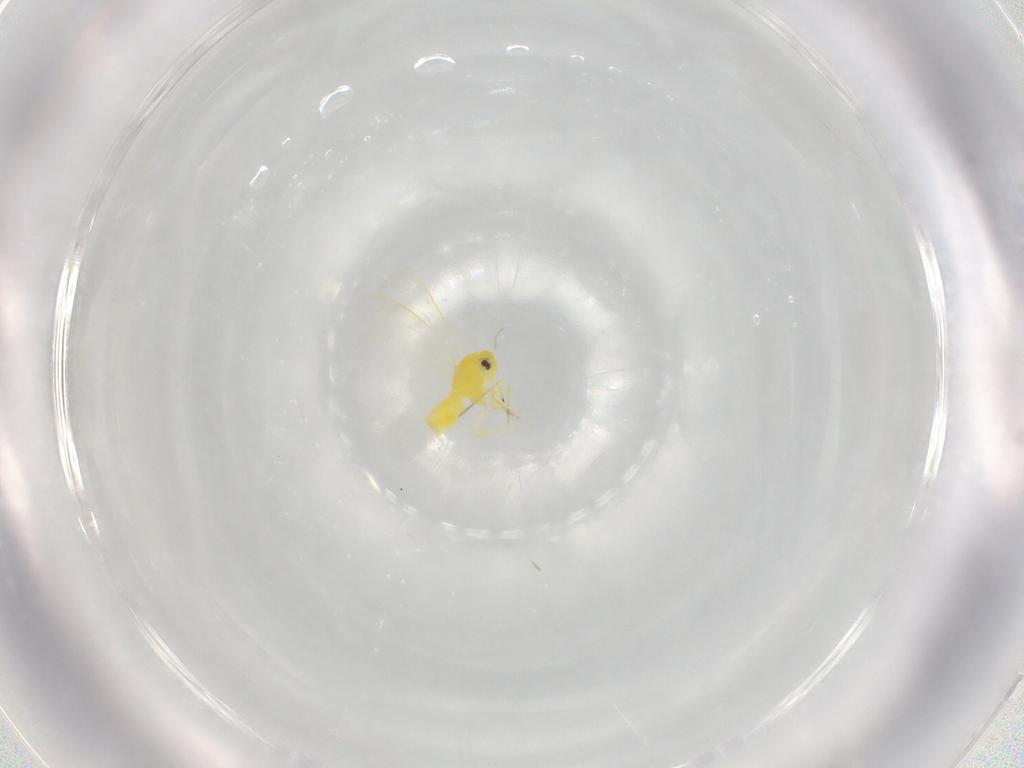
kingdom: Animalia
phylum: Arthropoda
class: Insecta
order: Hemiptera
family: Aleyrodidae
